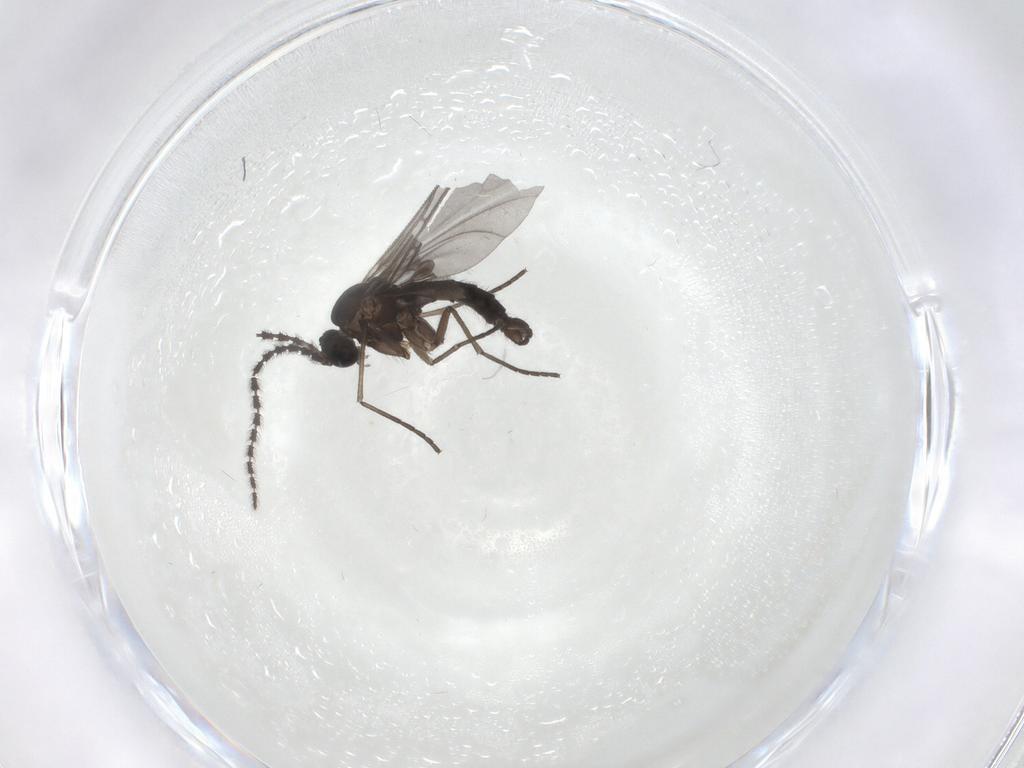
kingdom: Animalia
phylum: Arthropoda
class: Insecta
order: Diptera
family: Sciaridae
